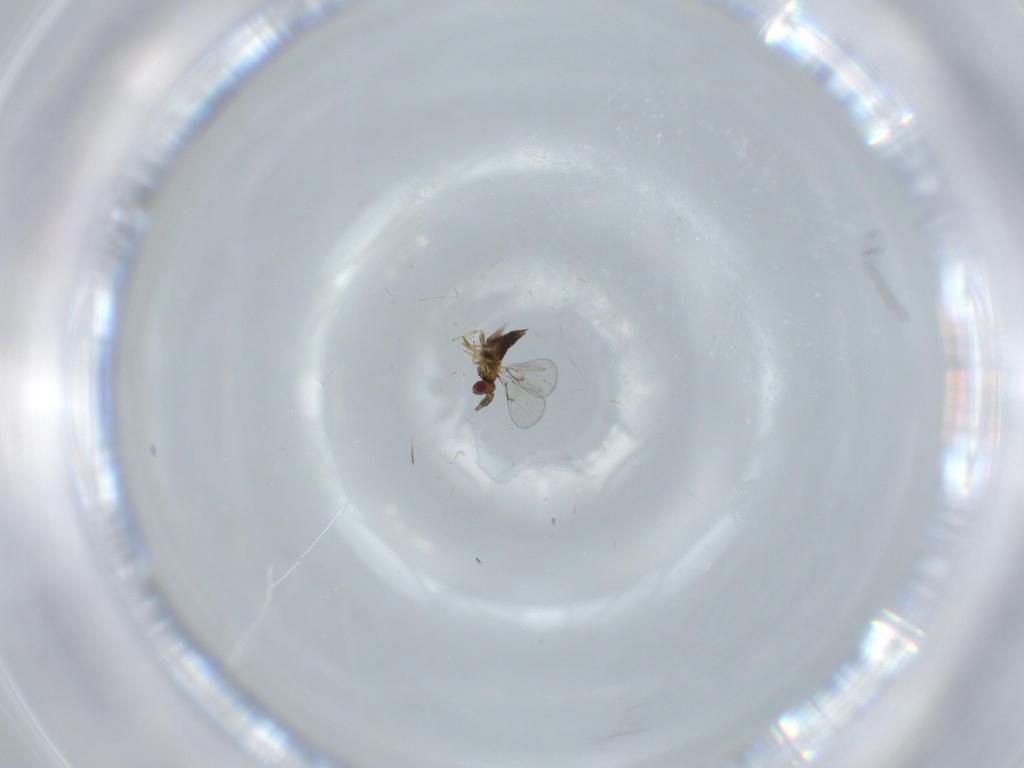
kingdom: Animalia
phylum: Arthropoda
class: Insecta
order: Hymenoptera
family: Trichogrammatidae
